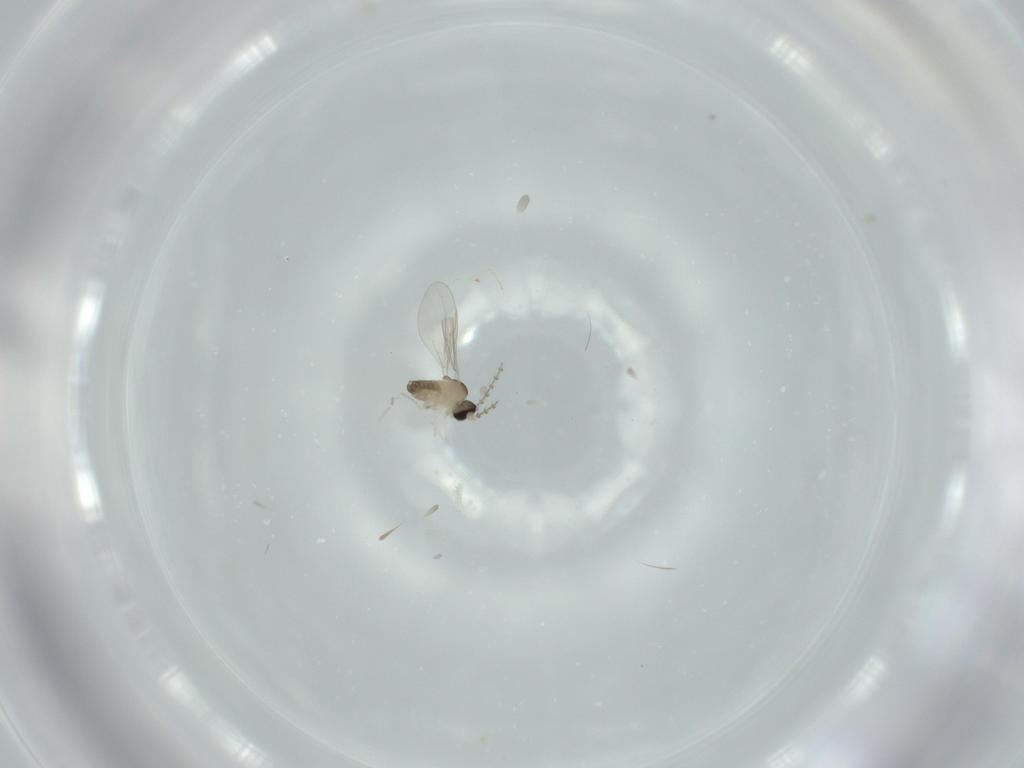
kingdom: Animalia
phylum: Arthropoda
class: Insecta
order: Diptera
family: Cecidomyiidae
